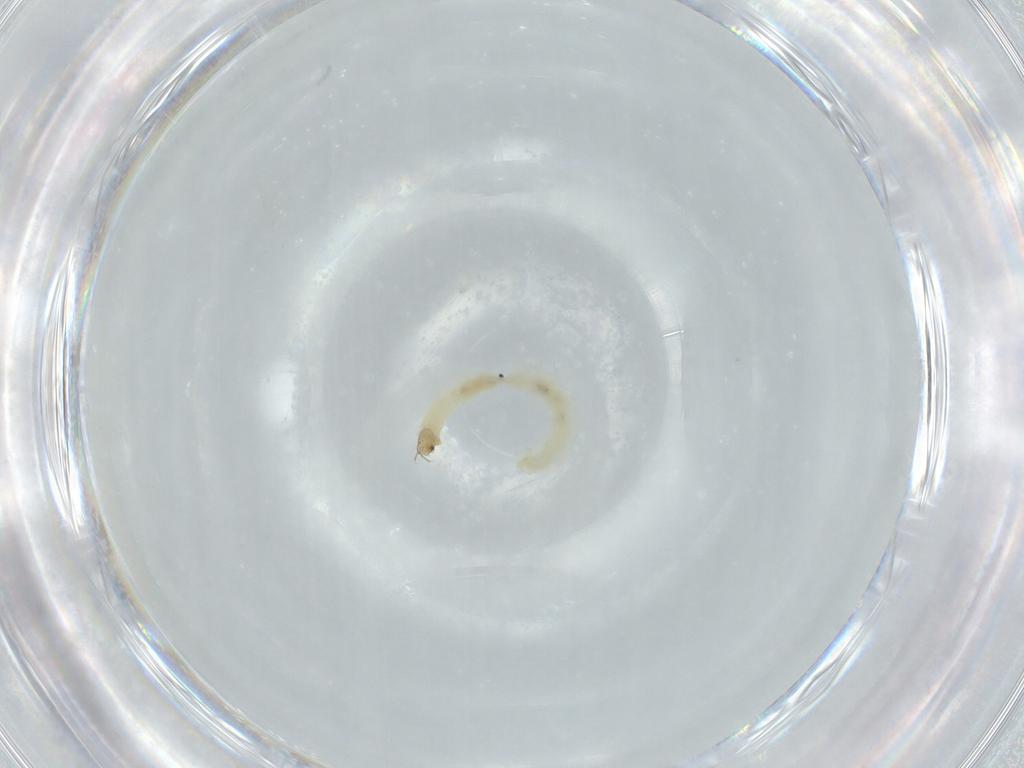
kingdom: Animalia
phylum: Arthropoda
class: Insecta
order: Diptera
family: Chironomidae
